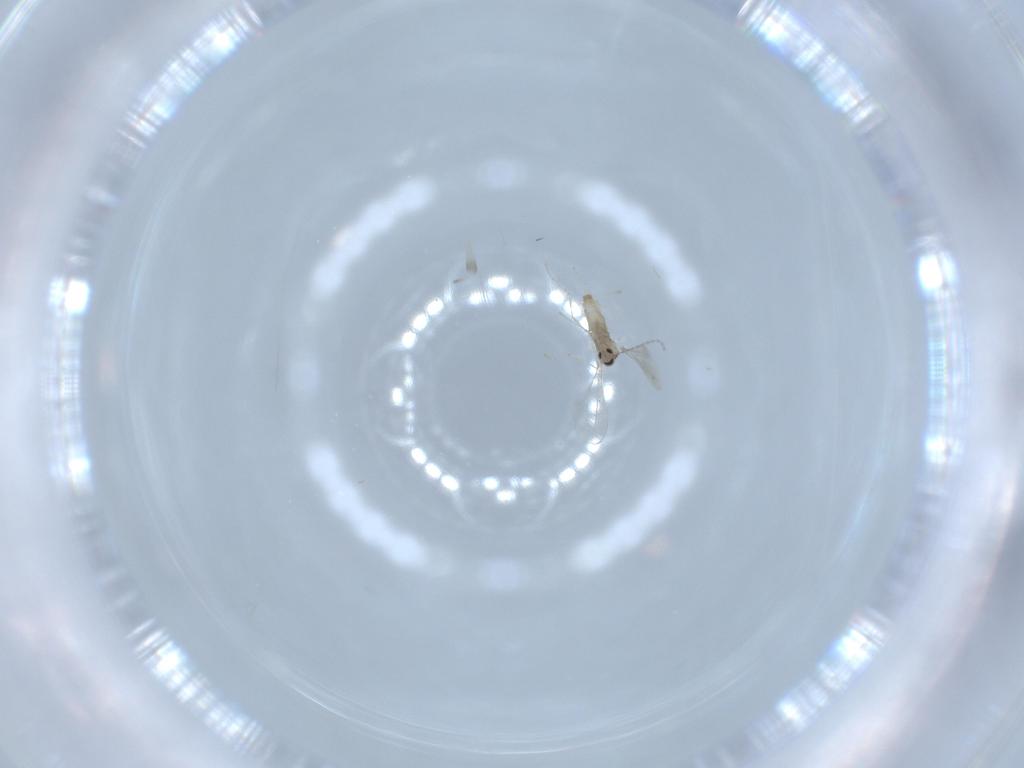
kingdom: Animalia
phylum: Arthropoda
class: Insecta
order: Diptera
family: Cecidomyiidae
